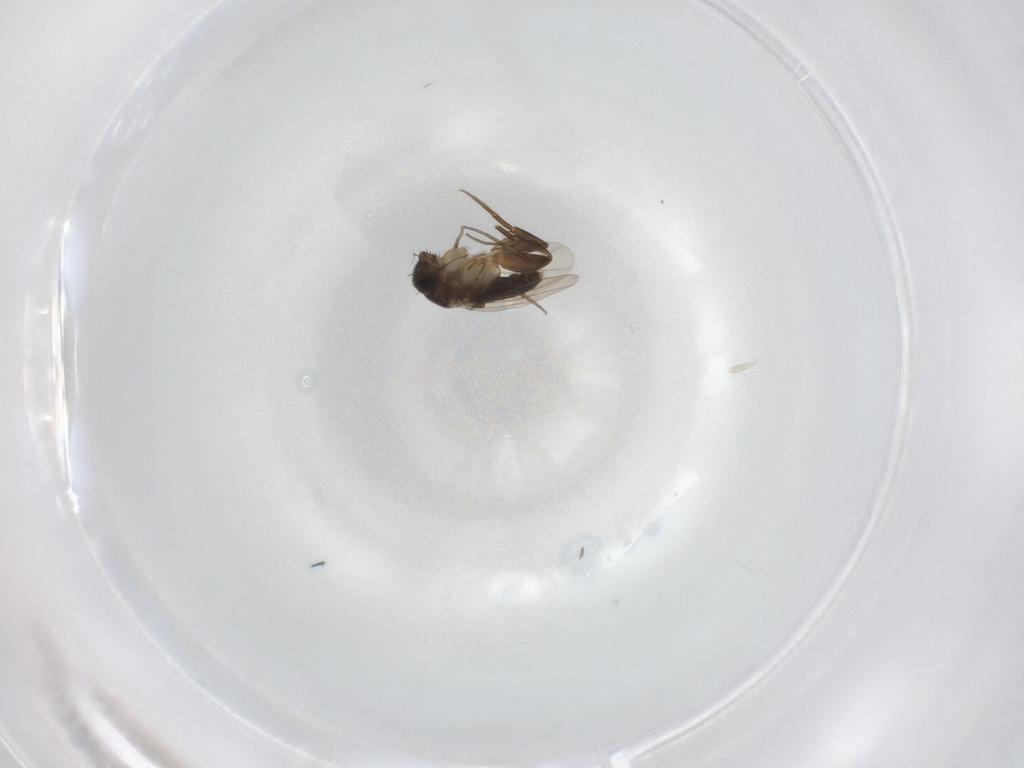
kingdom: Animalia
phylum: Arthropoda
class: Insecta
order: Diptera
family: Phoridae
